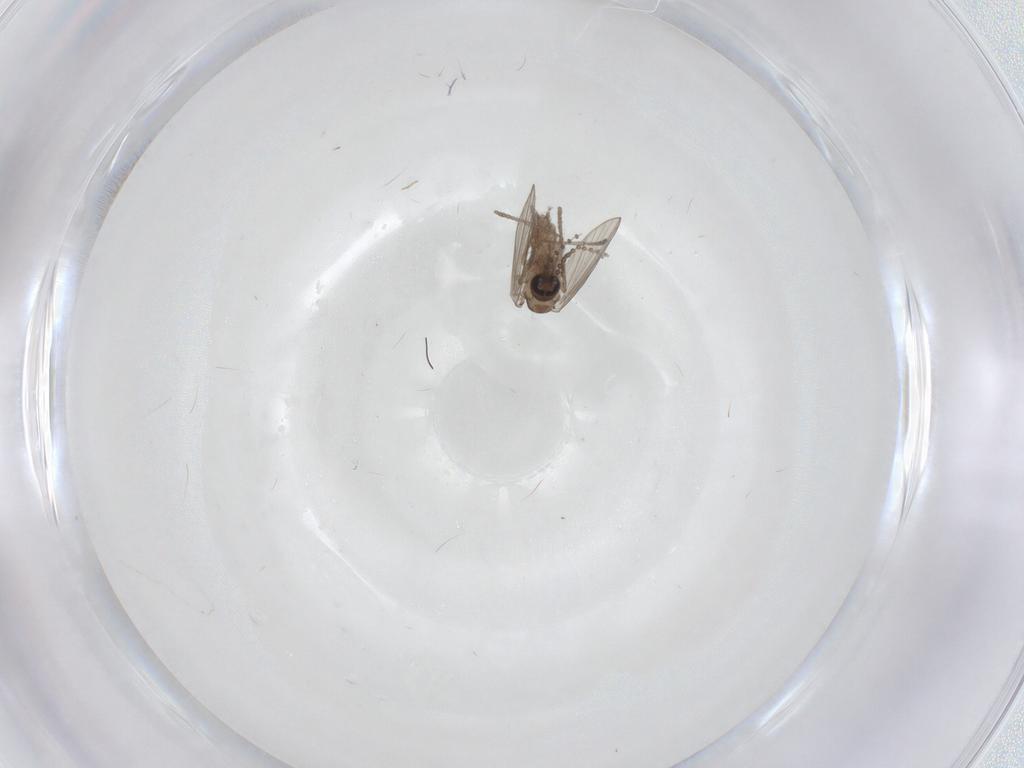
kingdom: Animalia
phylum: Arthropoda
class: Insecta
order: Diptera
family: Psychodidae
